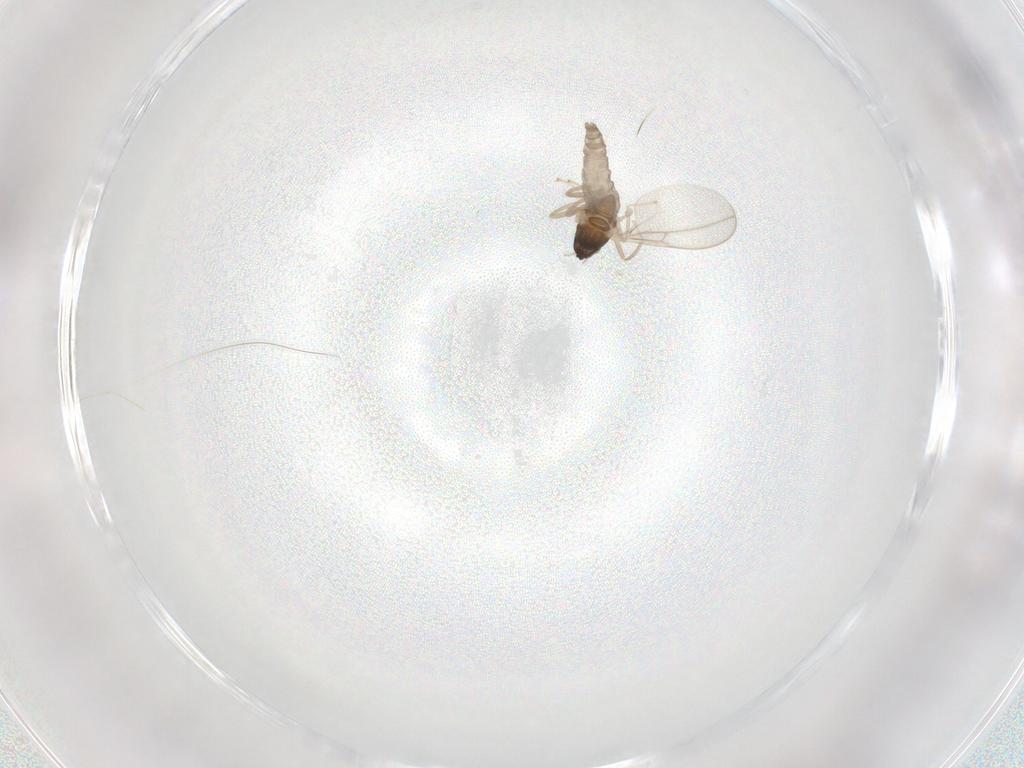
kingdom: Animalia
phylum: Arthropoda
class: Insecta
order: Diptera
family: Cecidomyiidae
